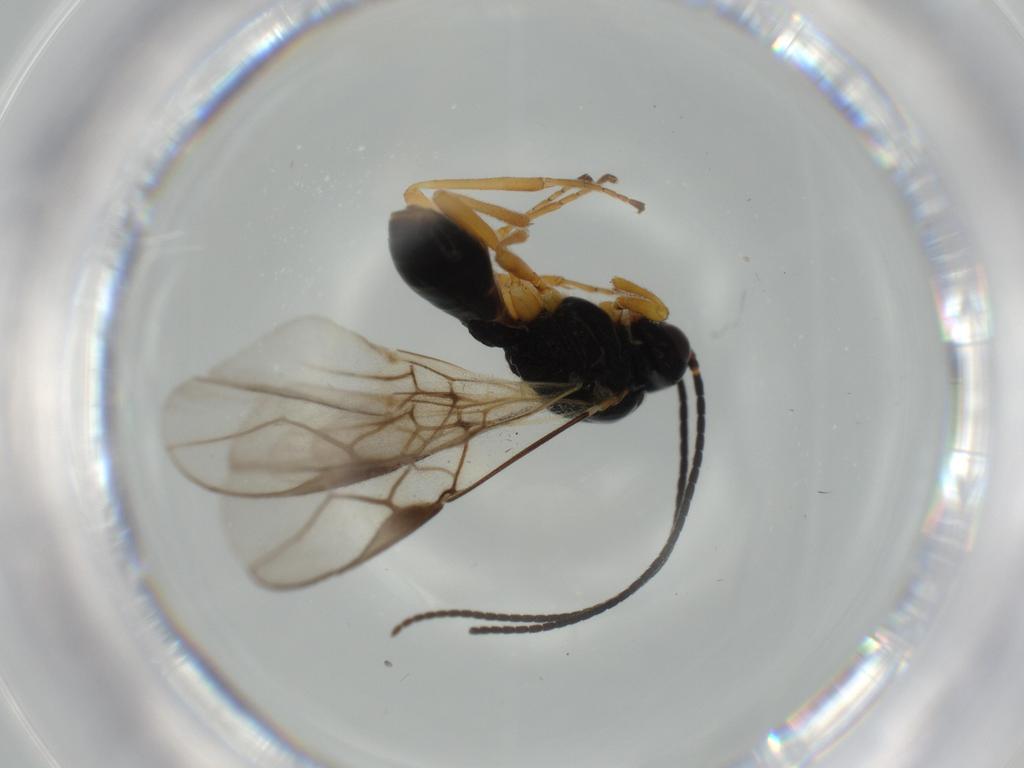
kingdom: Animalia
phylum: Arthropoda
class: Insecta
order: Hymenoptera
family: Braconidae
